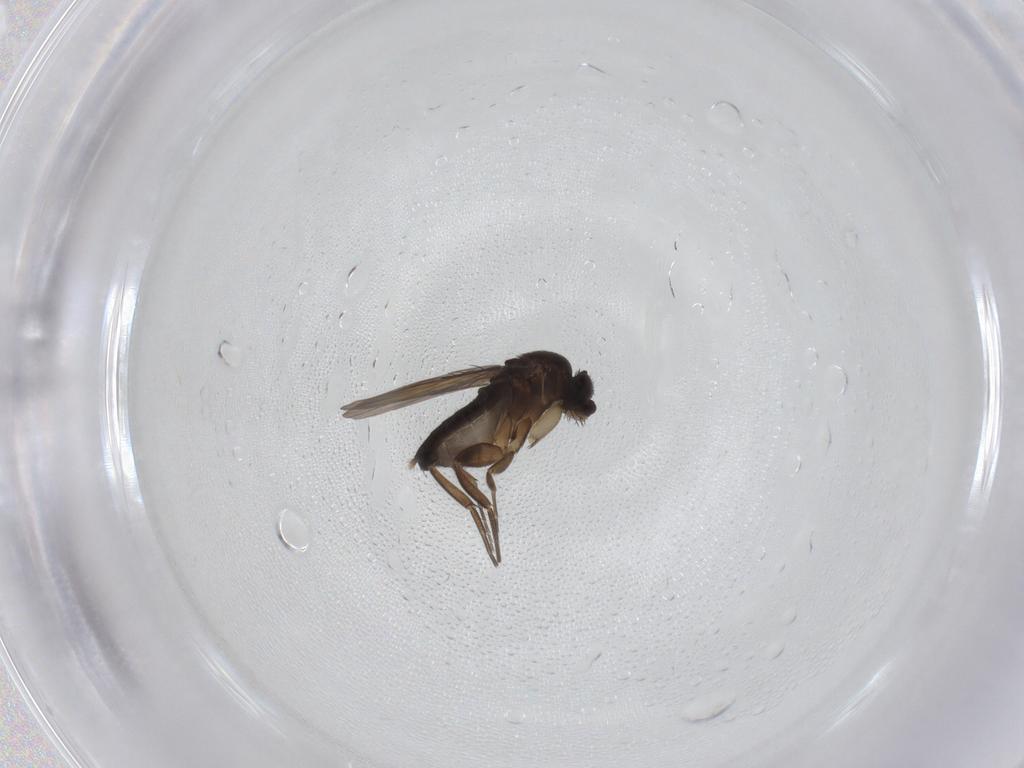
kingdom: Animalia
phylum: Arthropoda
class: Insecta
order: Diptera
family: Phoridae
